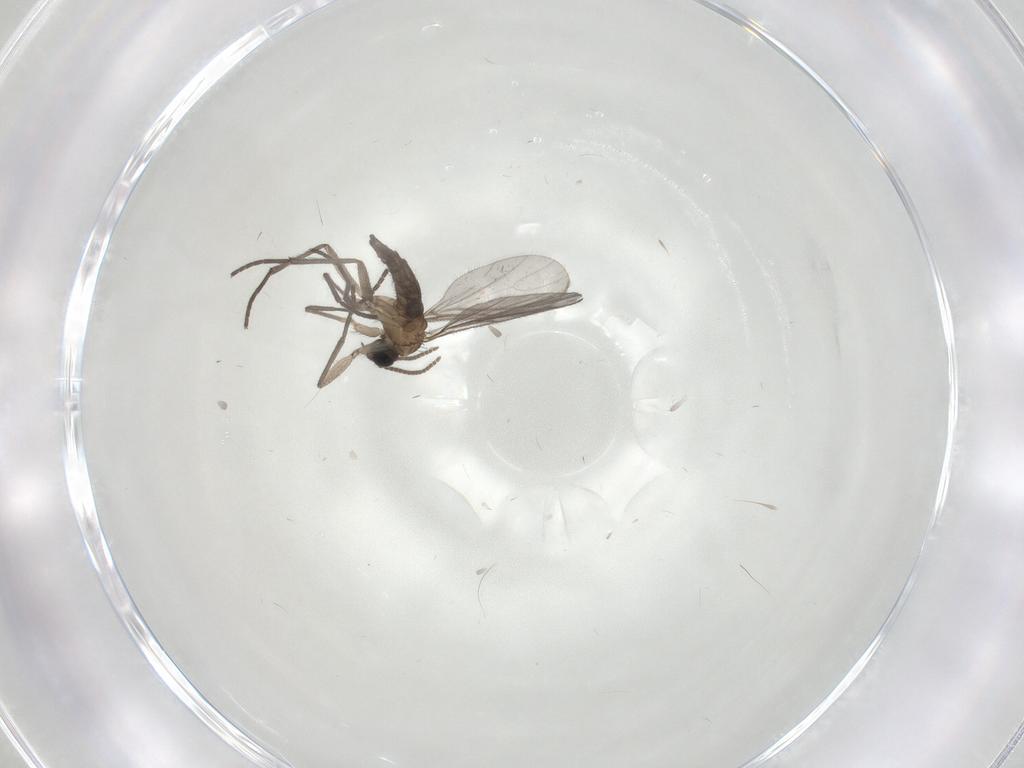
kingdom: Animalia
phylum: Arthropoda
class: Insecta
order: Diptera
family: Sciaridae
